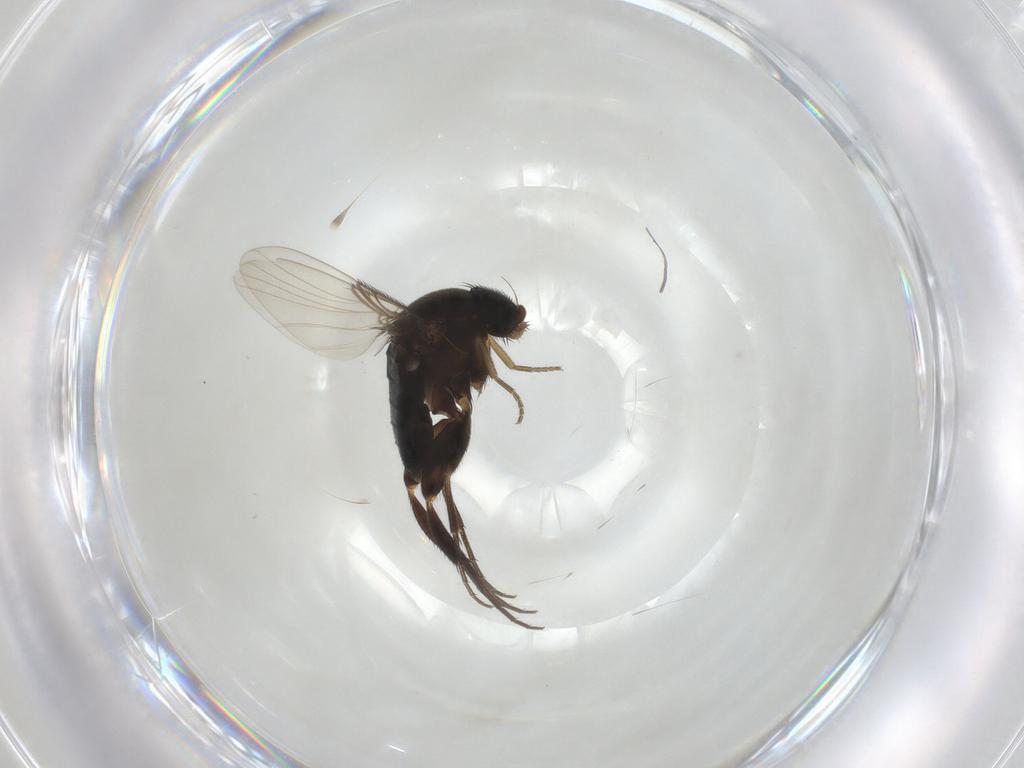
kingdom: Animalia
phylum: Arthropoda
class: Insecta
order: Diptera
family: Phoridae
